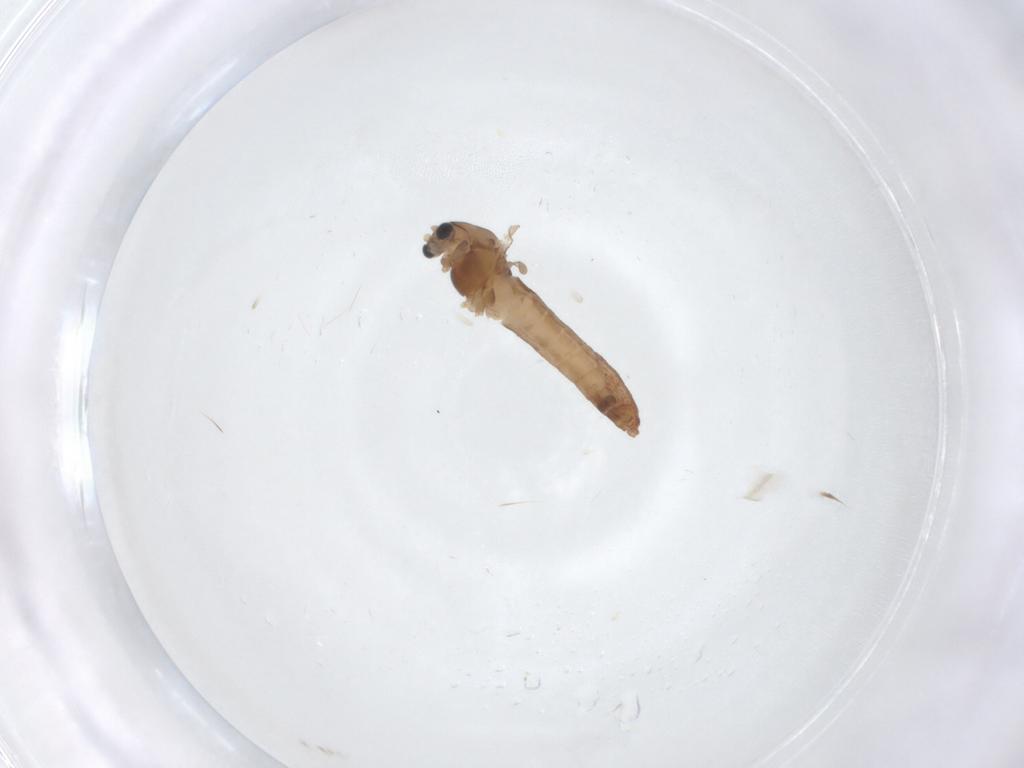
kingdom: Animalia
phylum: Arthropoda
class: Insecta
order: Diptera
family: Chironomidae
